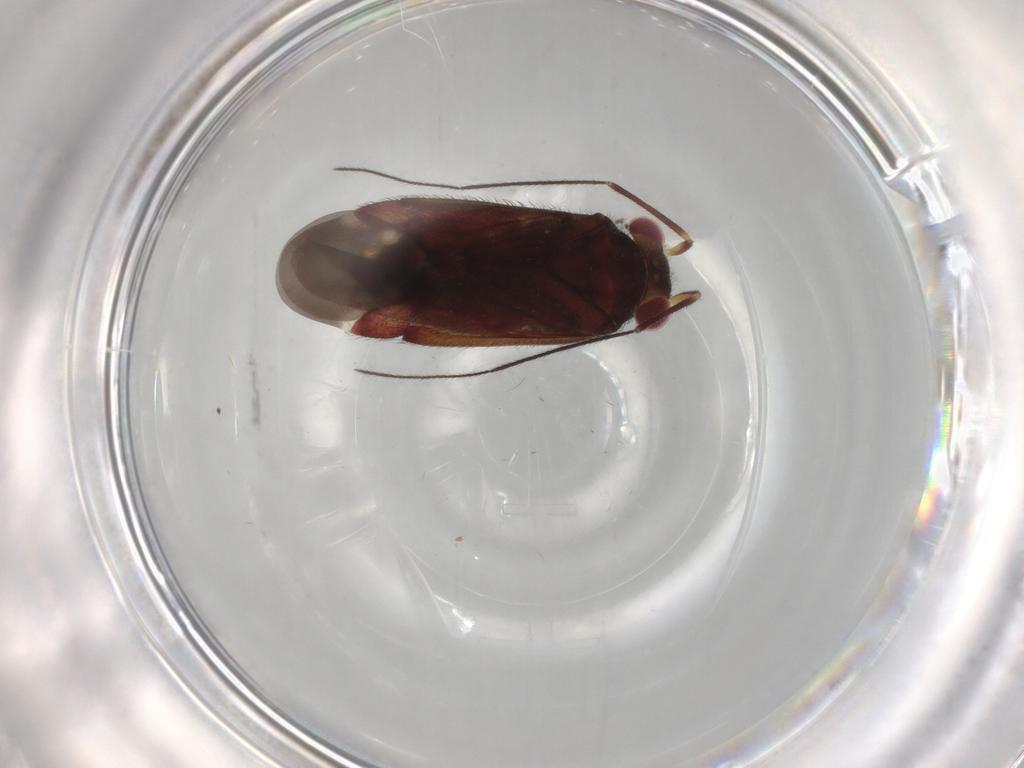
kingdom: Animalia
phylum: Arthropoda
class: Insecta
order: Hemiptera
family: Miridae
